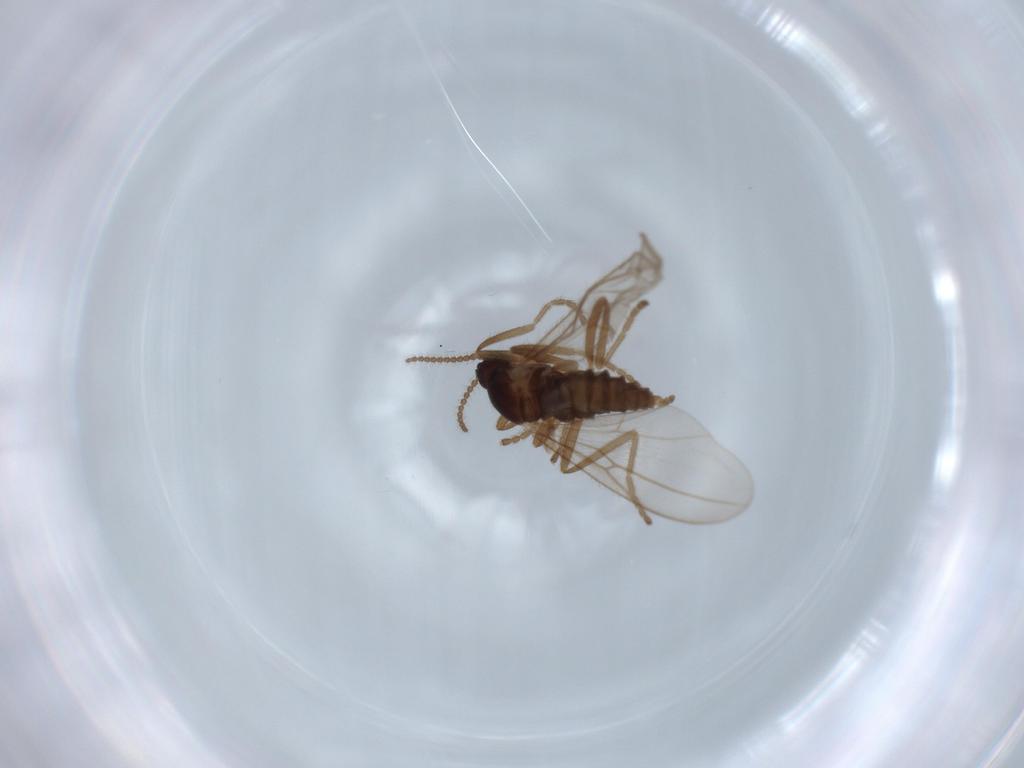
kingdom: Animalia
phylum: Arthropoda
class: Insecta
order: Diptera
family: Cecidomyiidae
